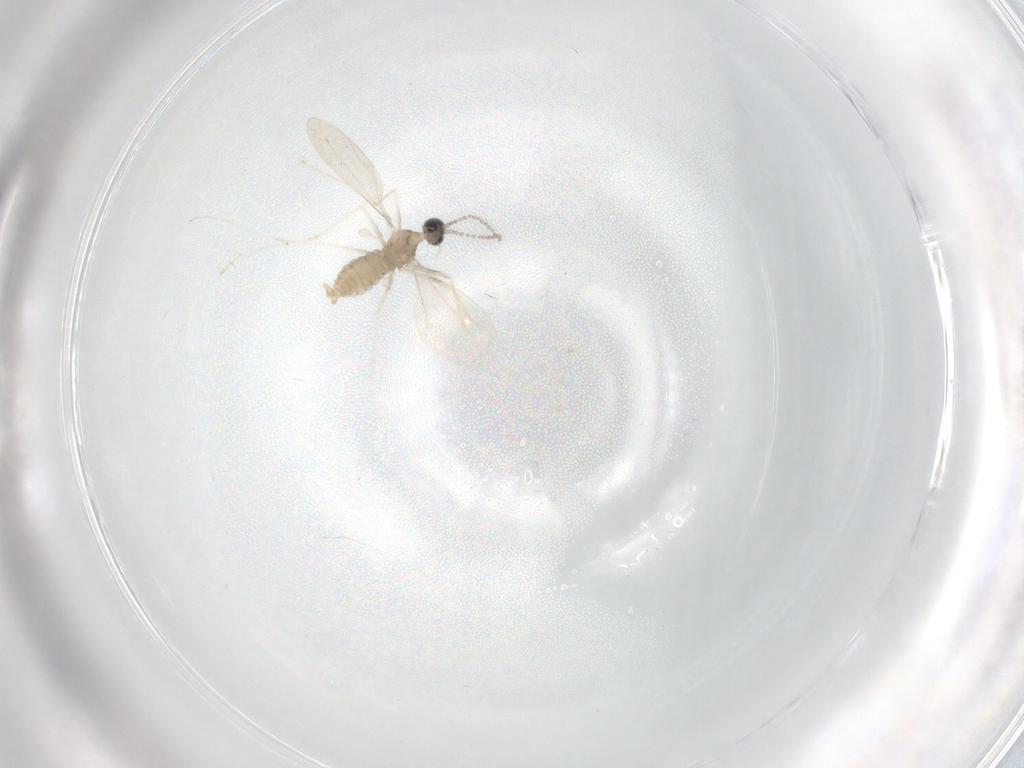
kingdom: Animalia
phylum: Arthropoda
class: Insecta
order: Diptera
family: Cecidomyiidae
